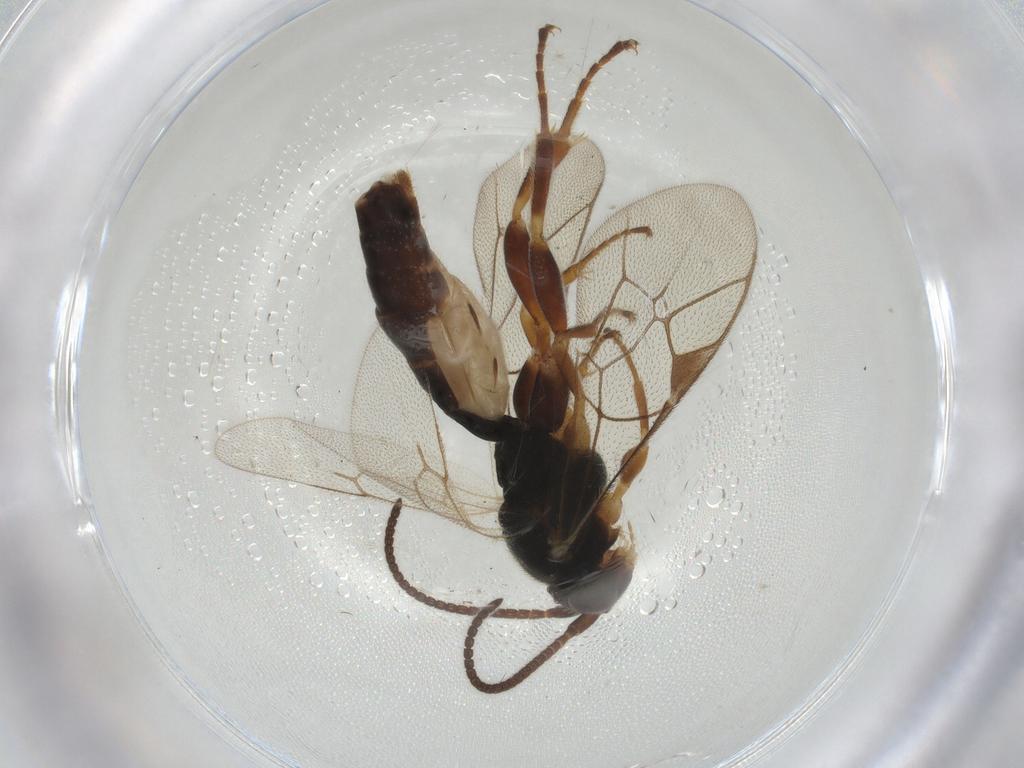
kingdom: Animalia
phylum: Arthropoda
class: Insecta
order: Hymenoptera
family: Ichneumonidae
